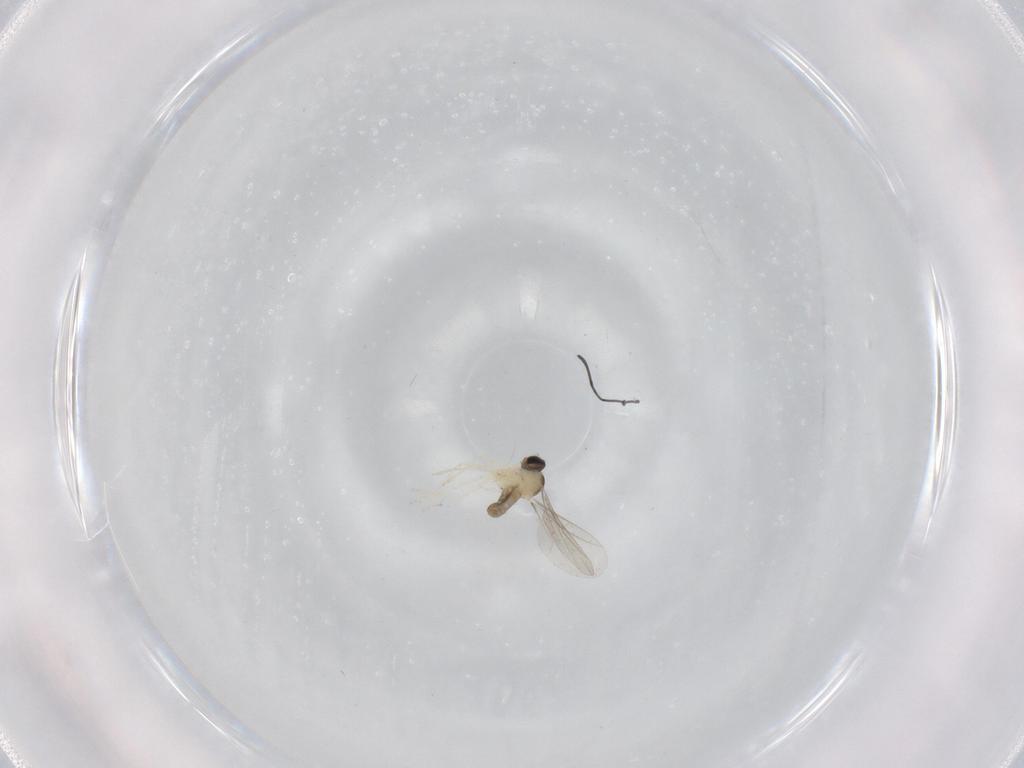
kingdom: Animalia
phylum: Arthropoda
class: Insecta
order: Diptera
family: Cecidomyiidae
